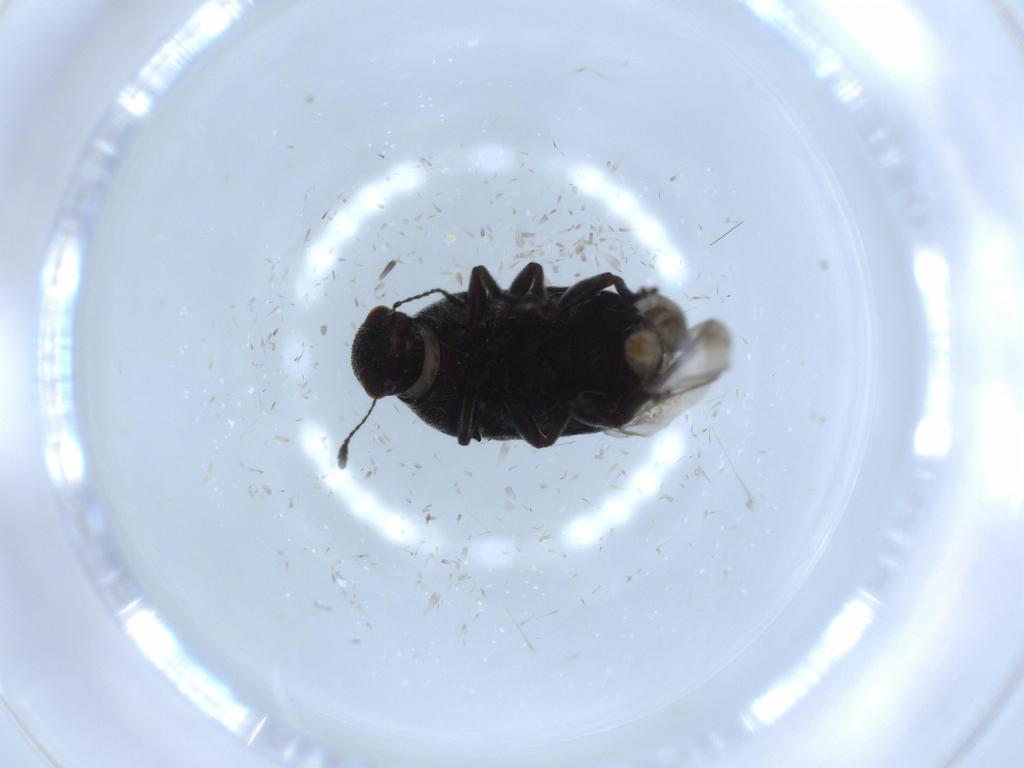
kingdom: Animalia
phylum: Arthropoda
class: Insecta
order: Coleoptera
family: Anthribidae
